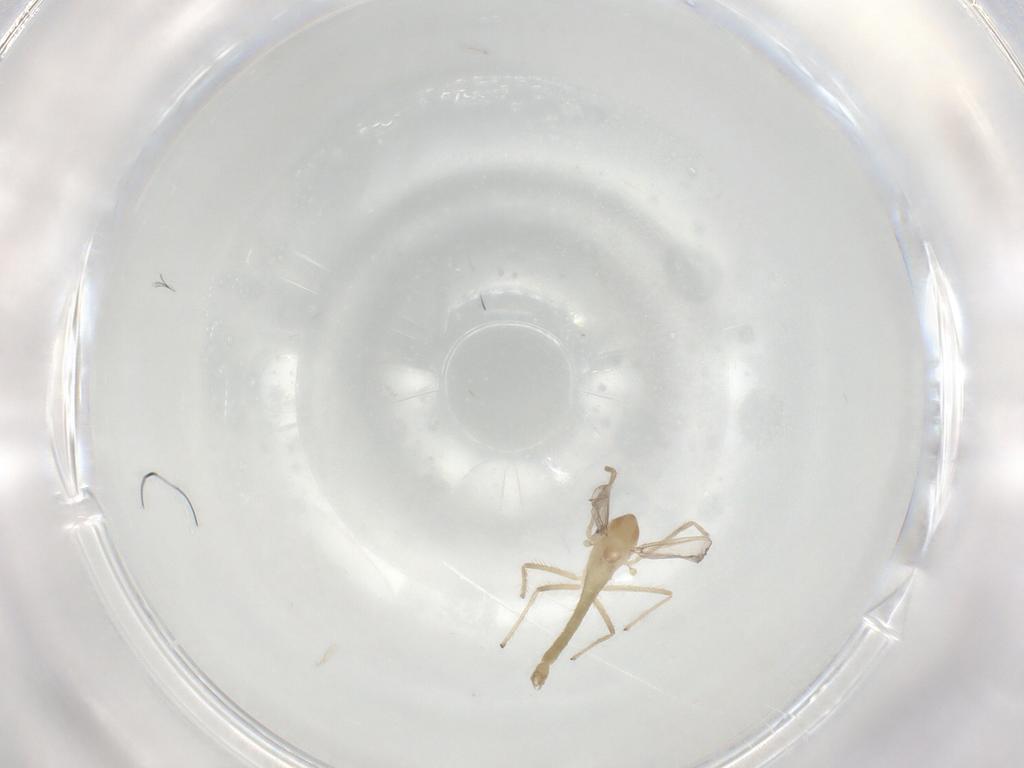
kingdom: Animalia
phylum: Arthropoda
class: Insecta
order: Diptera
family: Chironomidae
